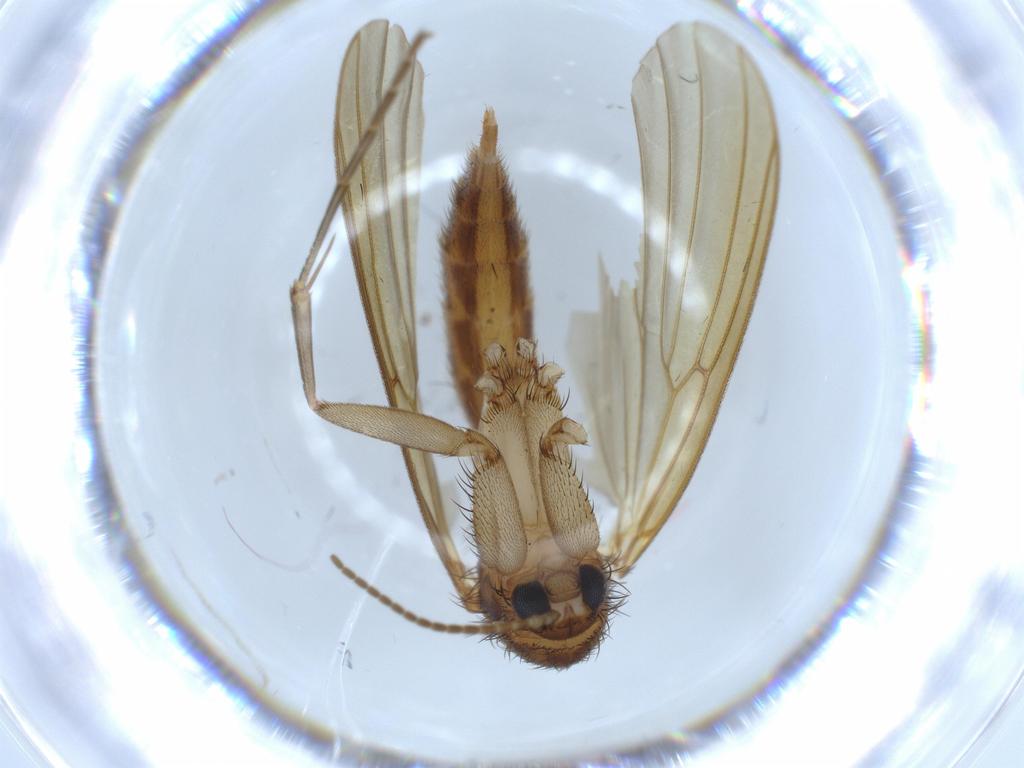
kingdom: Animalia
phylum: Arthropoda
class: Insecta
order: Diptera
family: Mycetophilidae
